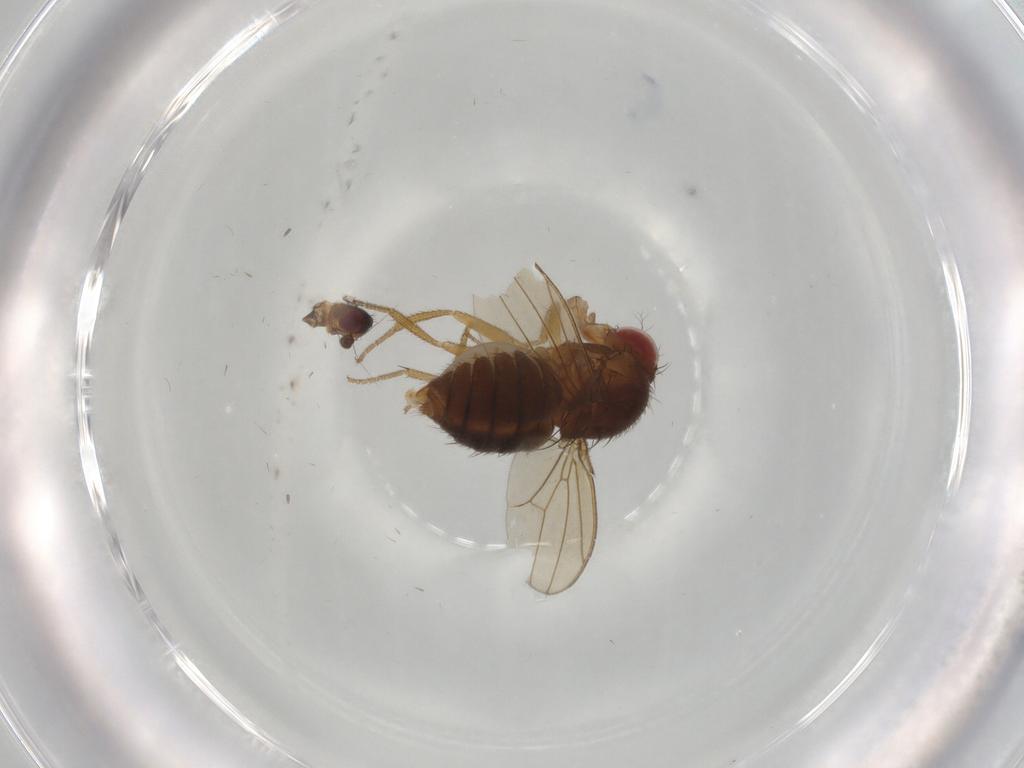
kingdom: Animalia
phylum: Arthropoda
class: Insecta
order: Diptera
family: Drosophilidae
